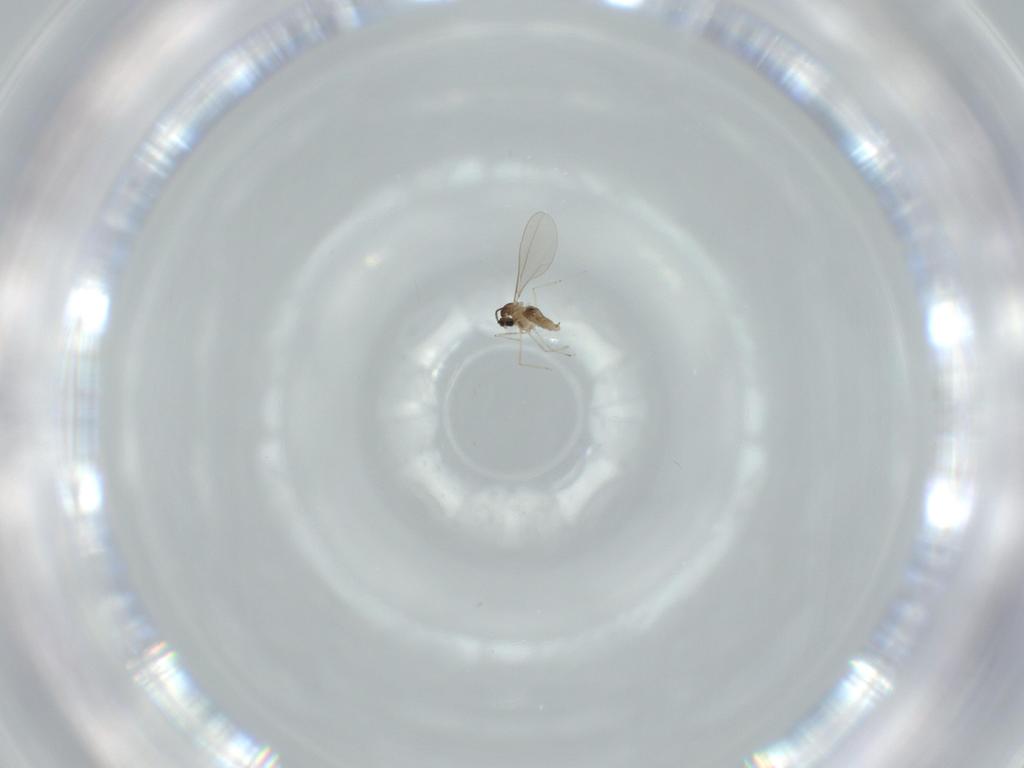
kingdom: Animalia
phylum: Arthropoda
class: Insecta
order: Diptera
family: Cecidomyiidae
